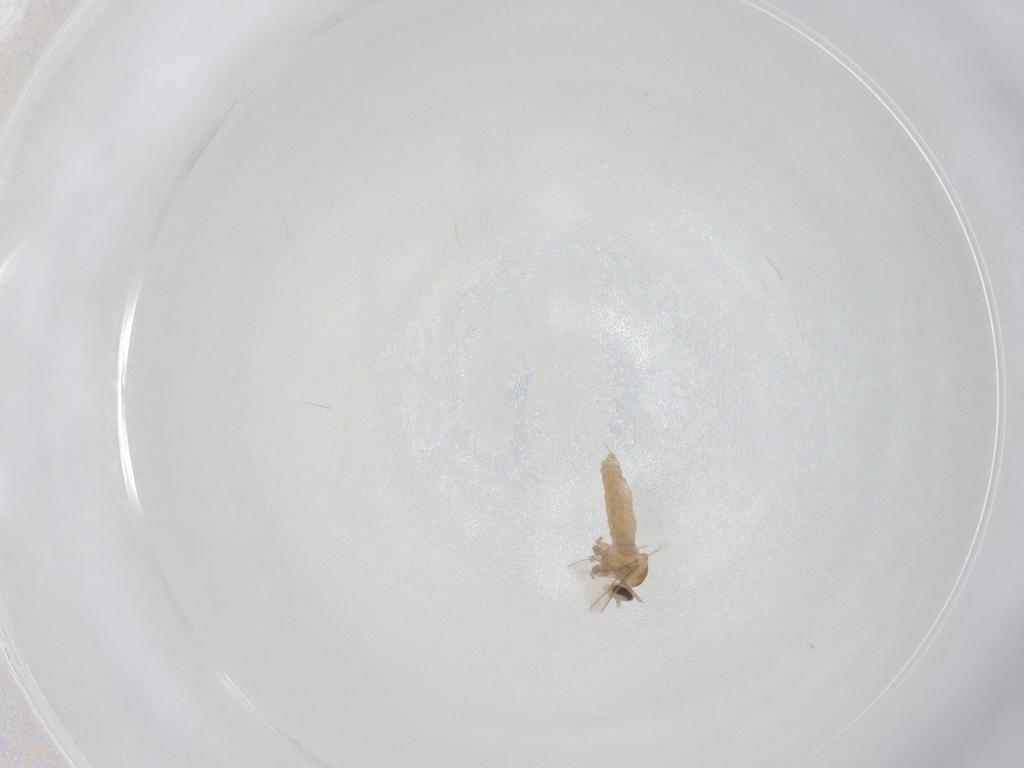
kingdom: Animalia
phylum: Arthropoda
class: Insecta
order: Diptera
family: Cecidomyiidae
